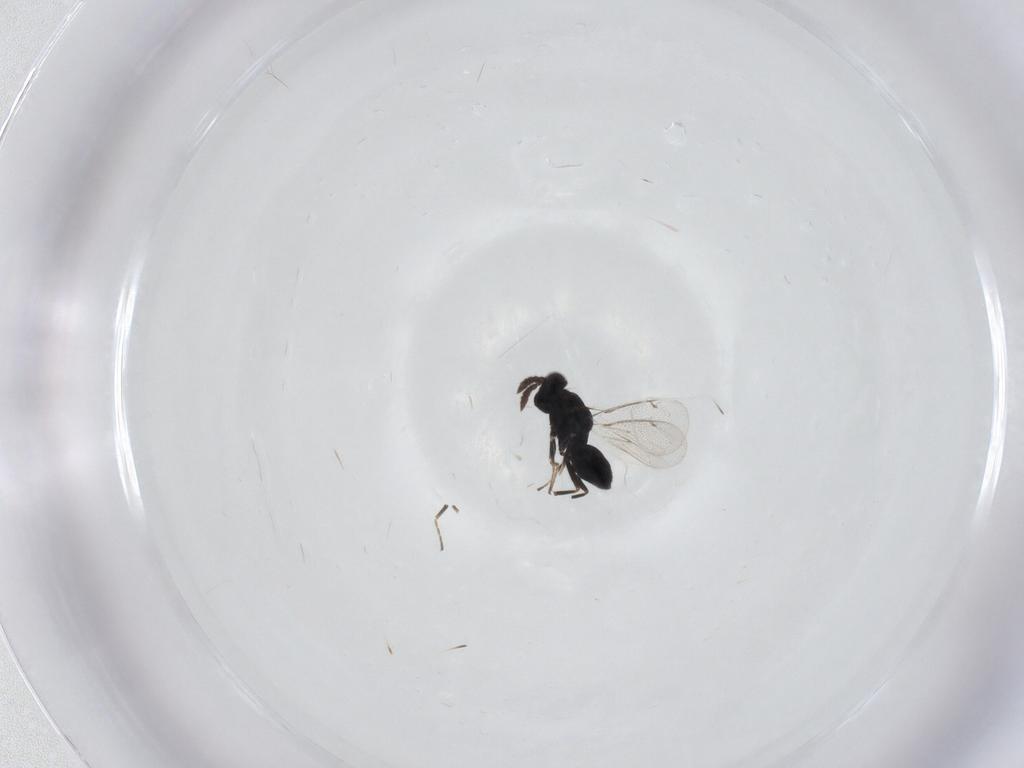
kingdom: Animalia
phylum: Arthropoda
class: Insecta
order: Hymenoptera
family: Eulophidae
